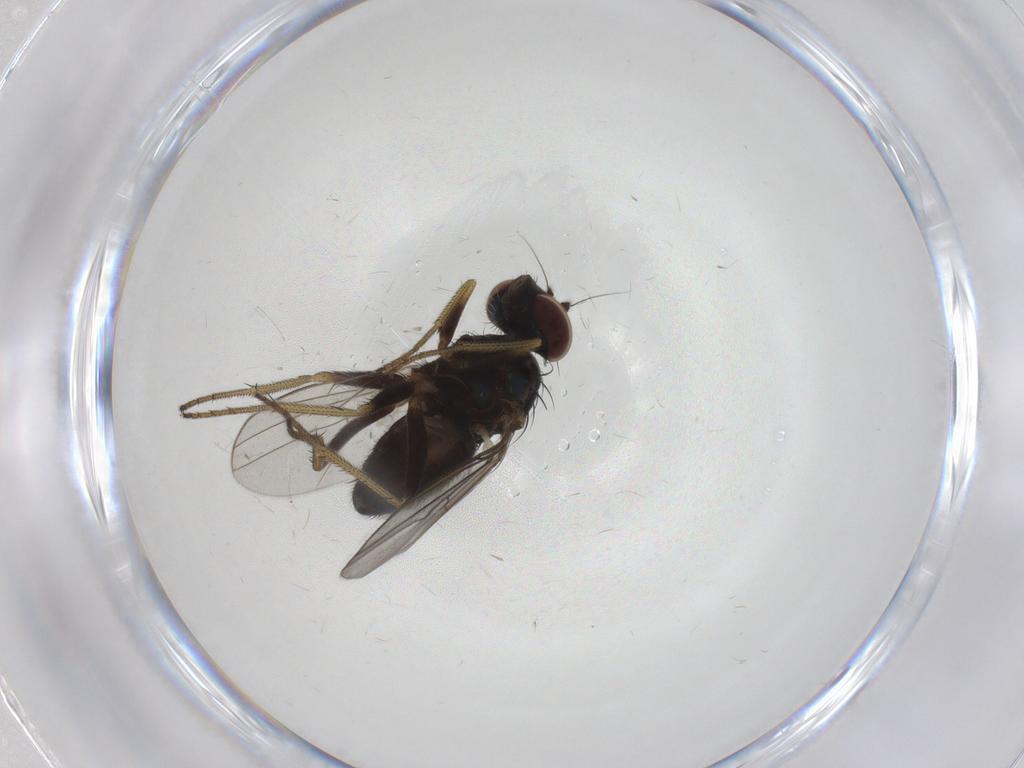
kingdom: Animalia
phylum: Arthropoda
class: Insecta
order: Diptera
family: Dolichopodidae
